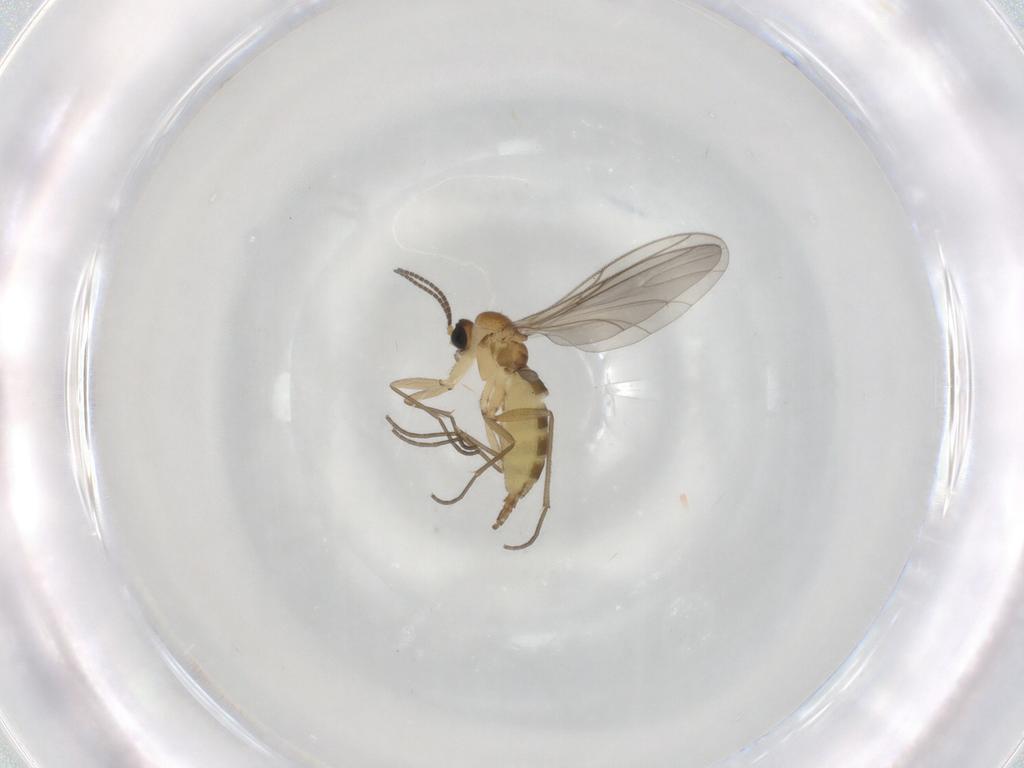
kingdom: Animalia
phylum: Arthropoda
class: Insecta
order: Diptera
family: Sciaridae
